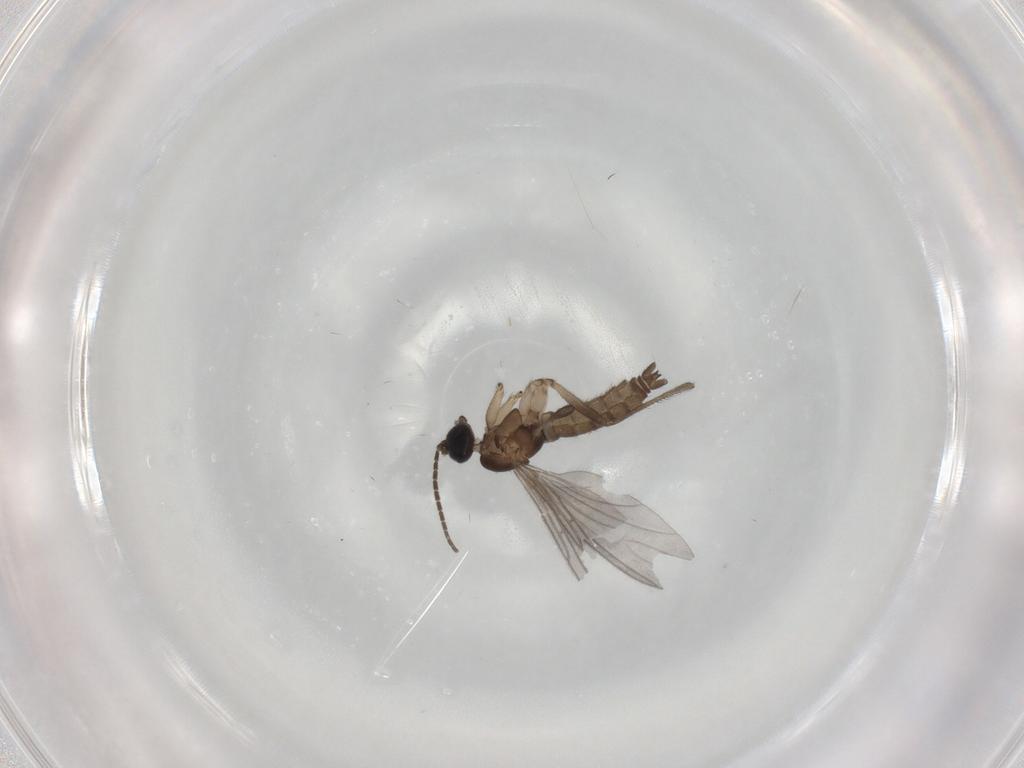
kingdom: Animalia
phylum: Arthropoda
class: Insecta
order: Diptera
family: Sciaridae
